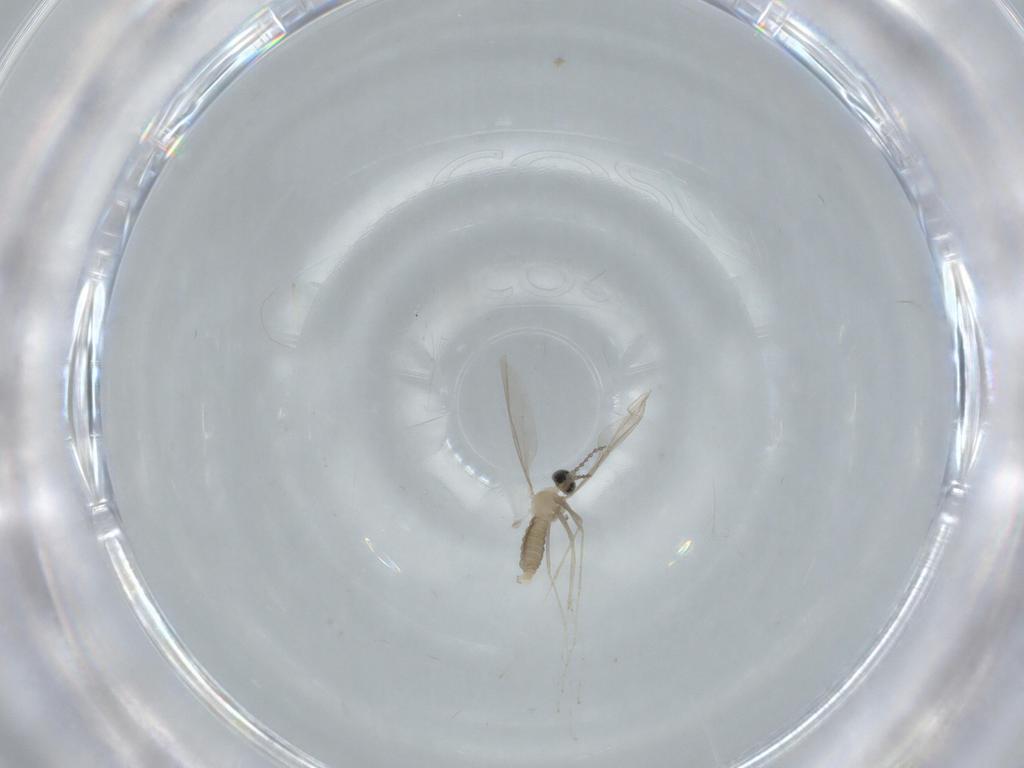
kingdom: Animalia
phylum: Arthropoda
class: Insecta
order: Diptera
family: Cecidomyiidae
